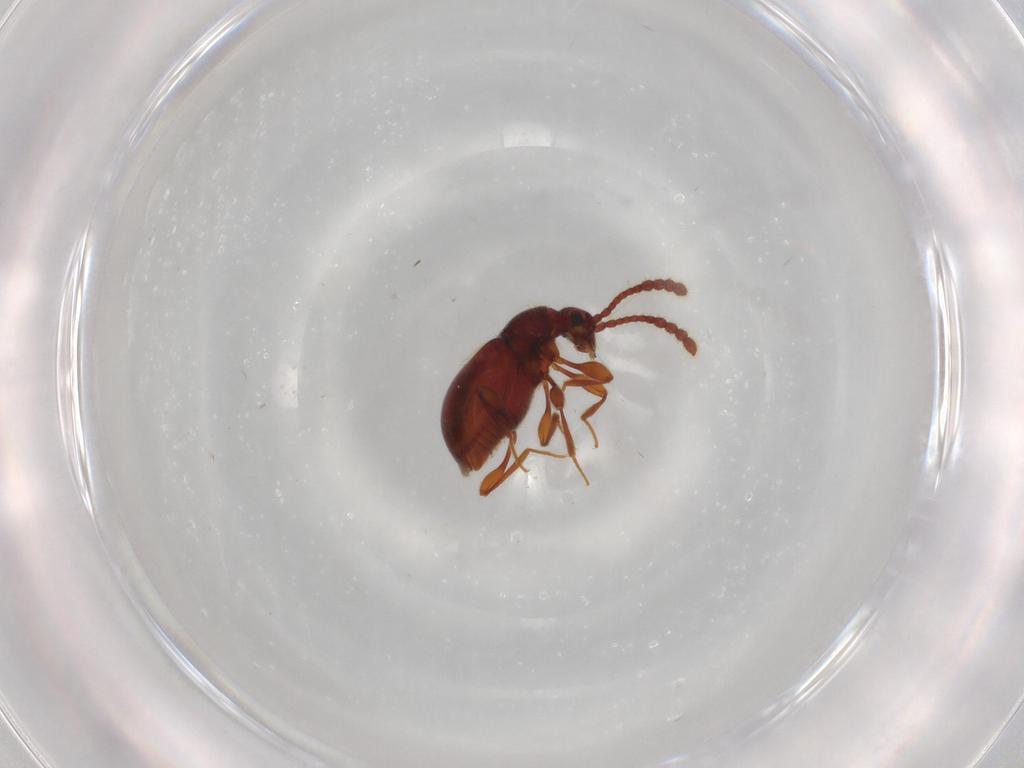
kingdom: Animalia
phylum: Arthropoda
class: Insecta
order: Coleoptera
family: Staphylinidae
